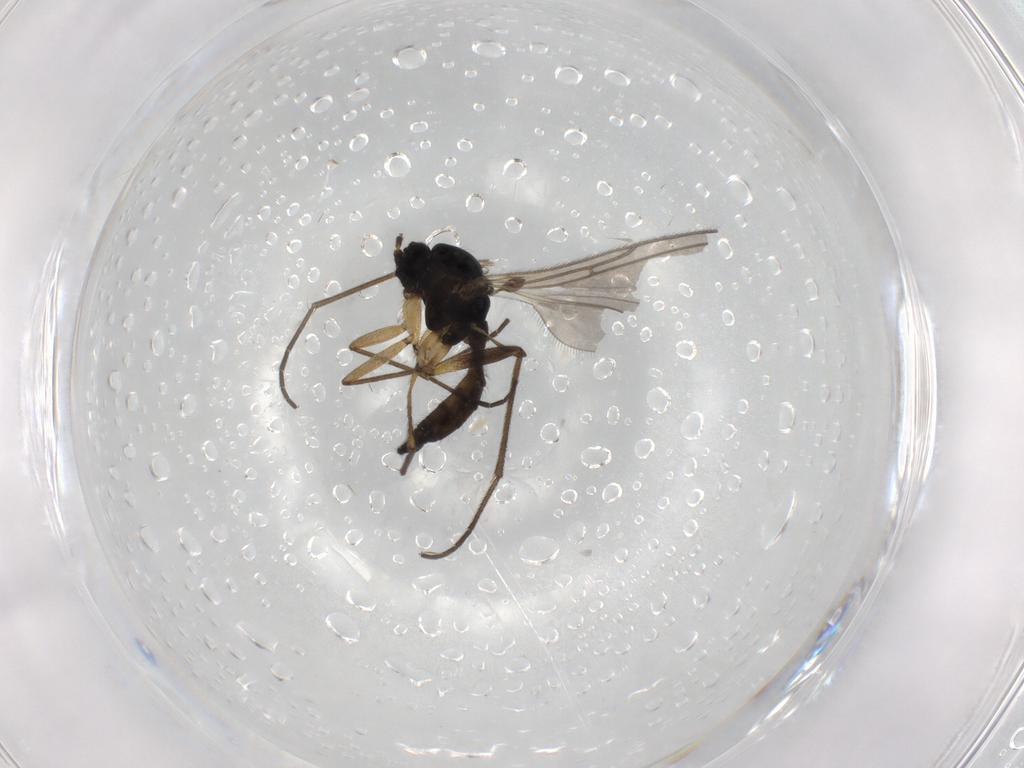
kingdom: Animalia
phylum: Arthropoda
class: Insecta
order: Diptera
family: Sciaridae
